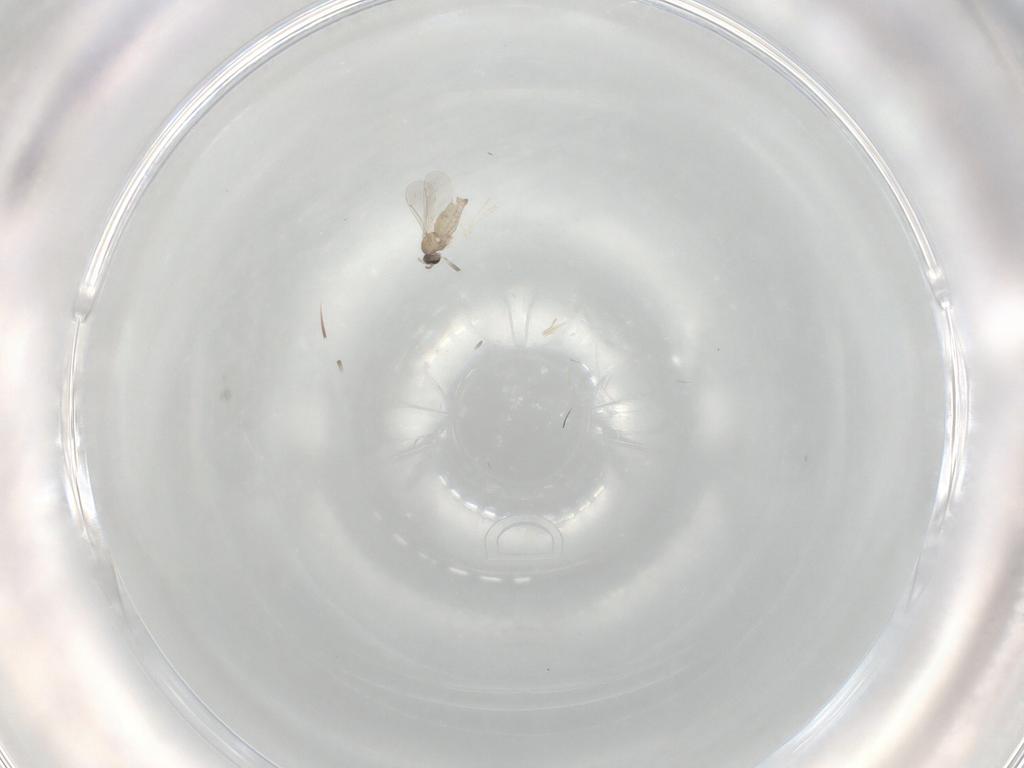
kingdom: Animalia
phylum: Arthropoda
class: Insecta
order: Diptera
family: Cecidomyiidae
